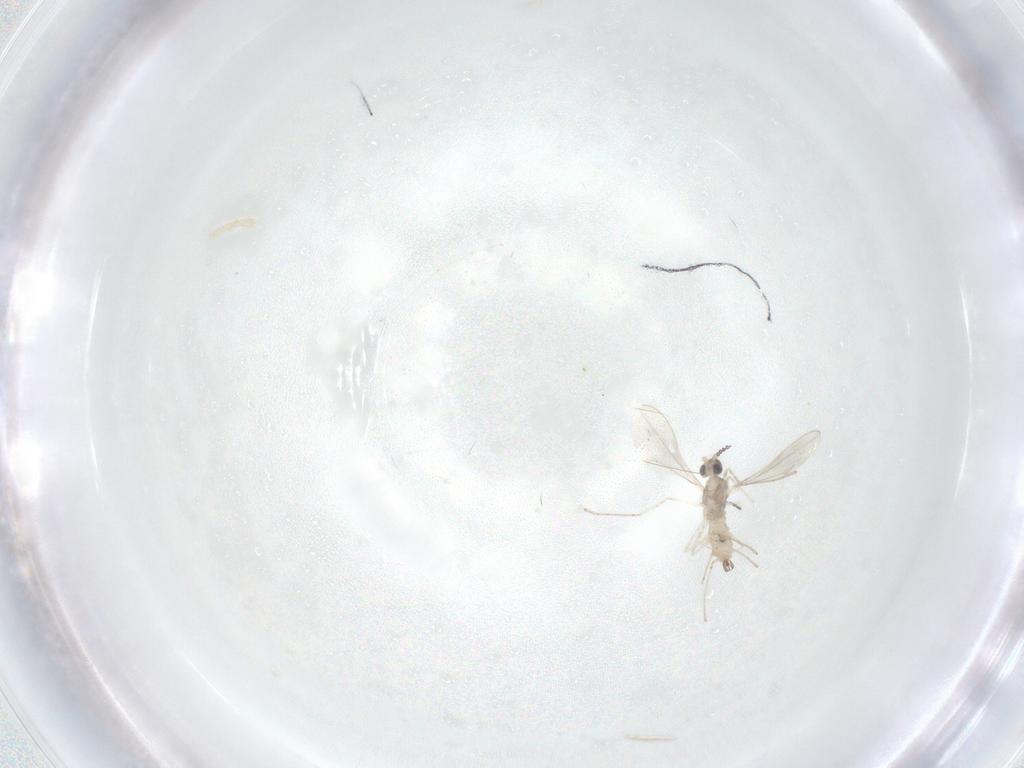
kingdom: Animalia
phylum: Arthropoda
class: Insecta
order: Diptera
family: Cecidomyiidae
